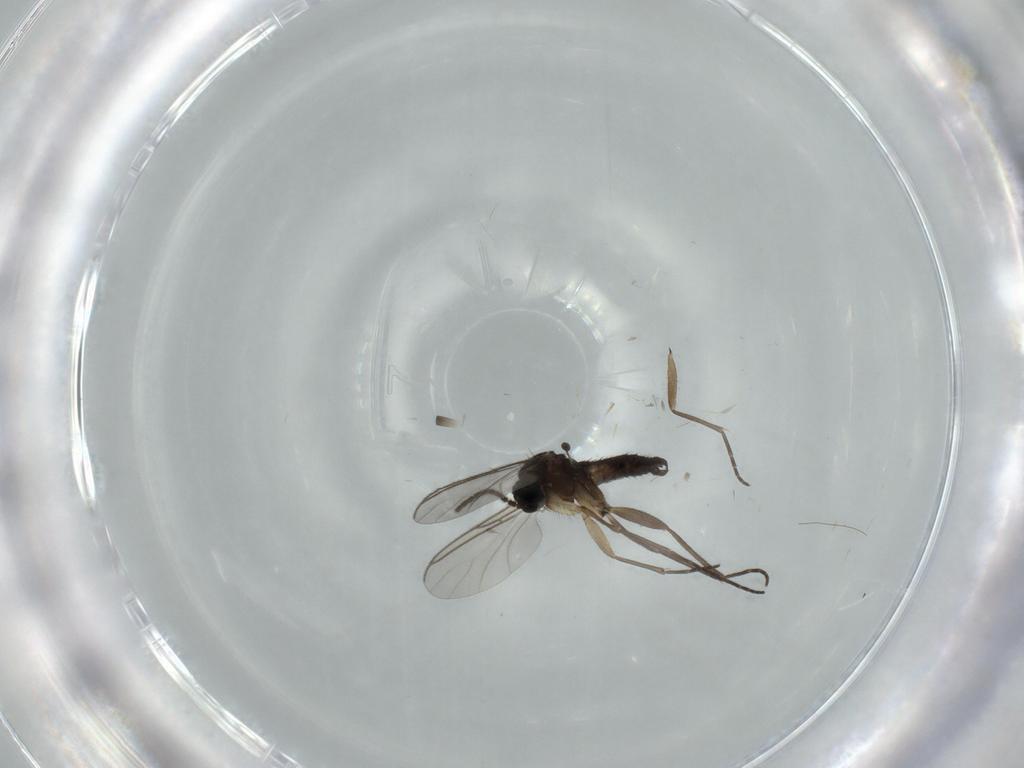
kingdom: Animalia
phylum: Arthropoda
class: Insecta
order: Diptera
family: Sciaridae
